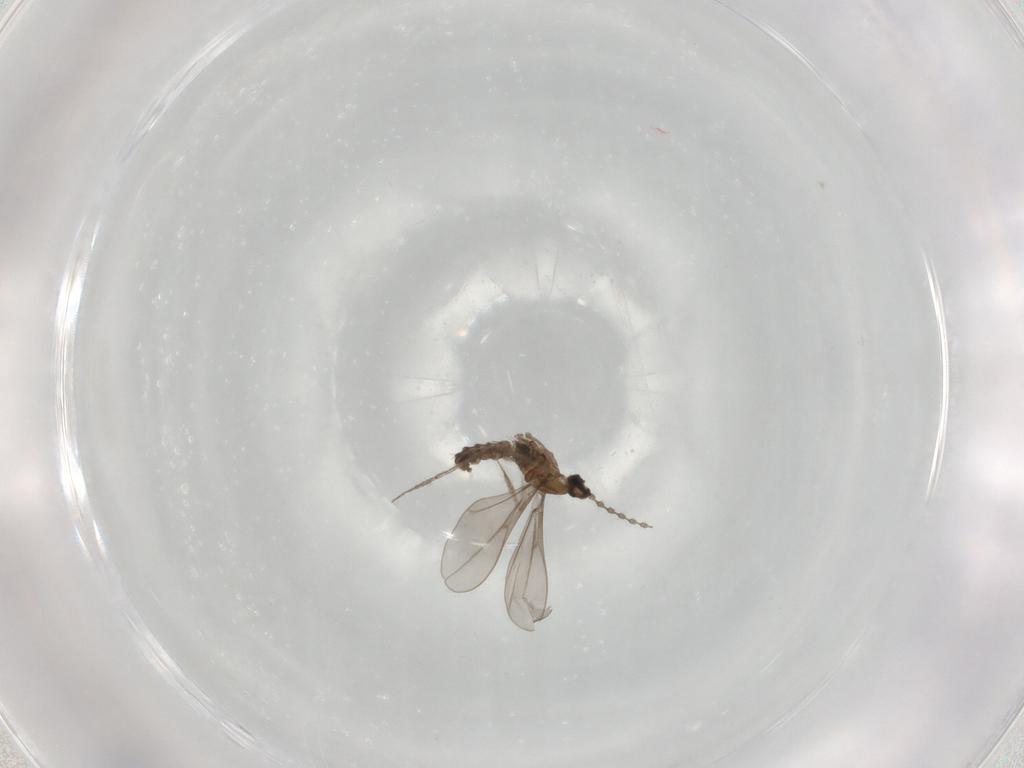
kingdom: Animalia
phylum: Arthropoda
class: Insecta
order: Diptera
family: Cecidomyiidae
